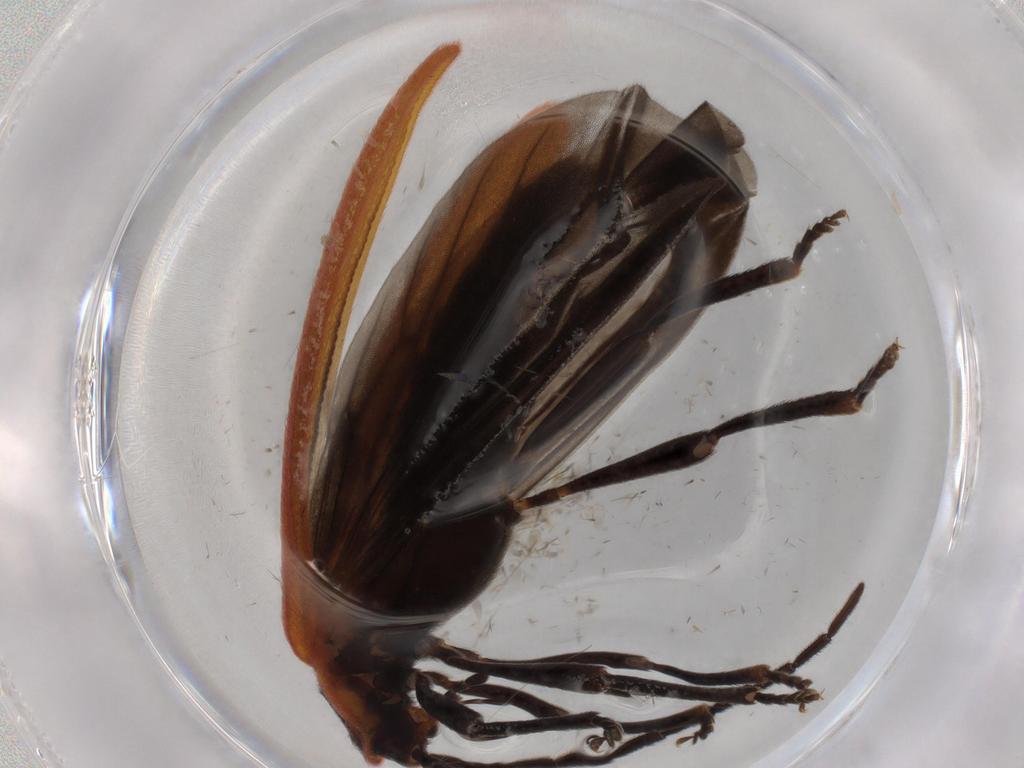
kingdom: Animalia
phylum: Arthropoda
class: Insecta
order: Coleoptera
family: Lycidae
